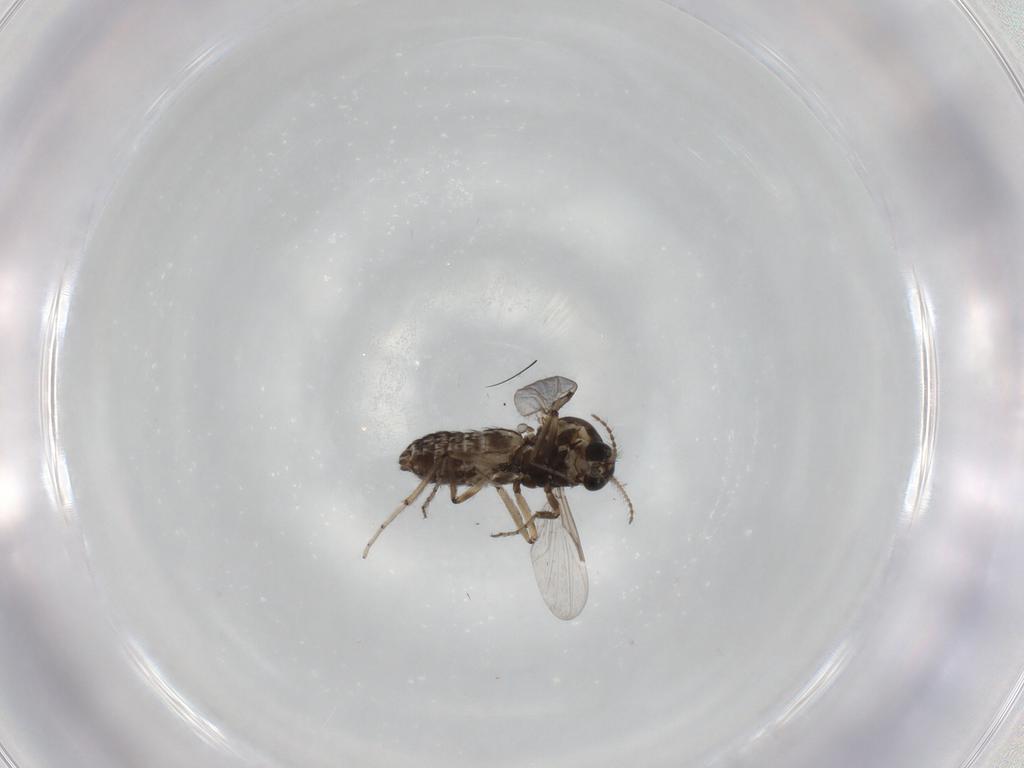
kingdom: Animalia
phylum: Arthropoda
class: Insecta
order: Diptera
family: Ceratopogonidae
